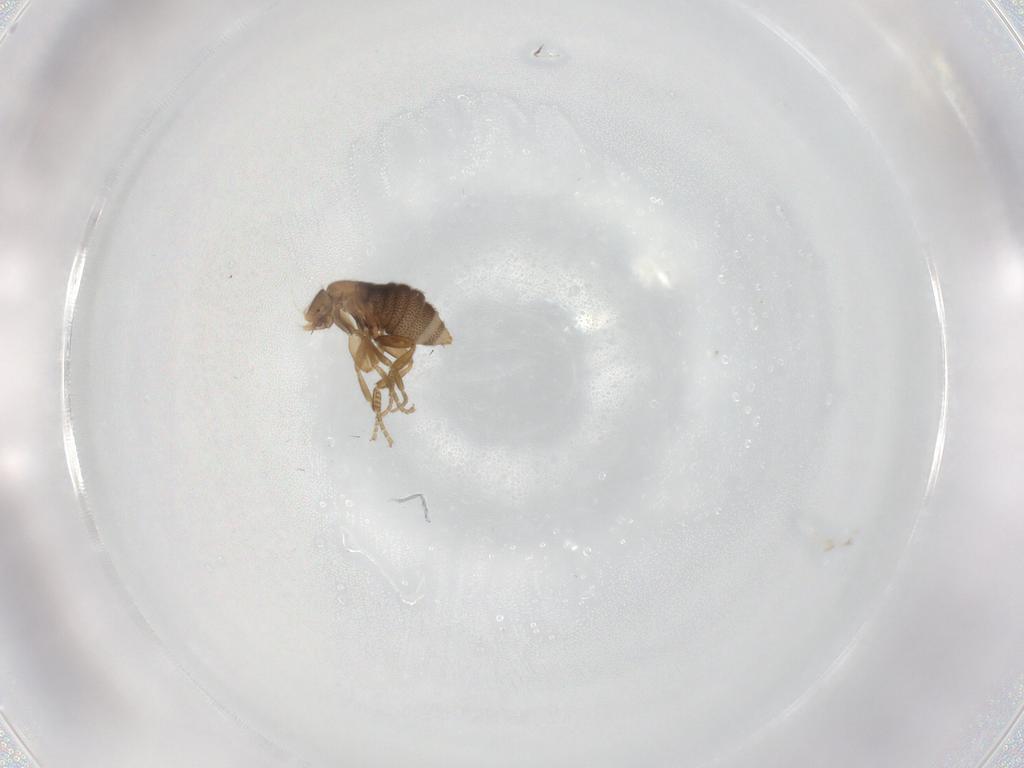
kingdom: Animalia
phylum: Arthropoda
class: Insecta
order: Diptera
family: Phoridae
